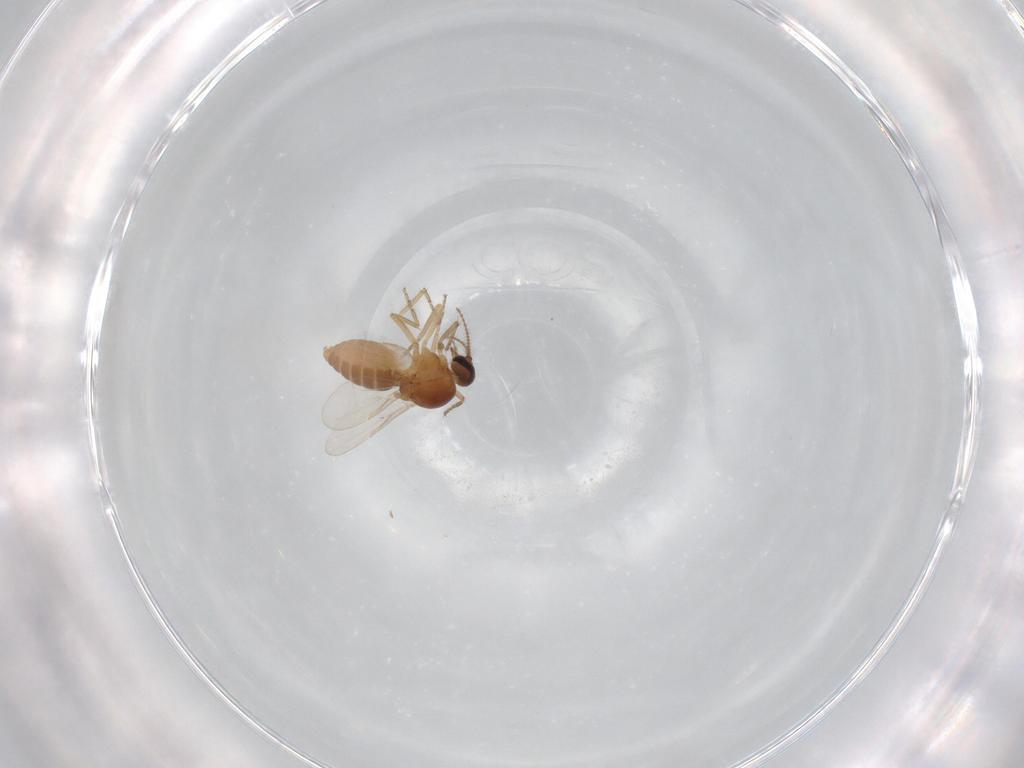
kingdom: Animalia
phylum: Arthropoda
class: Insecta
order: Diptera
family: Ceratopogonidae
